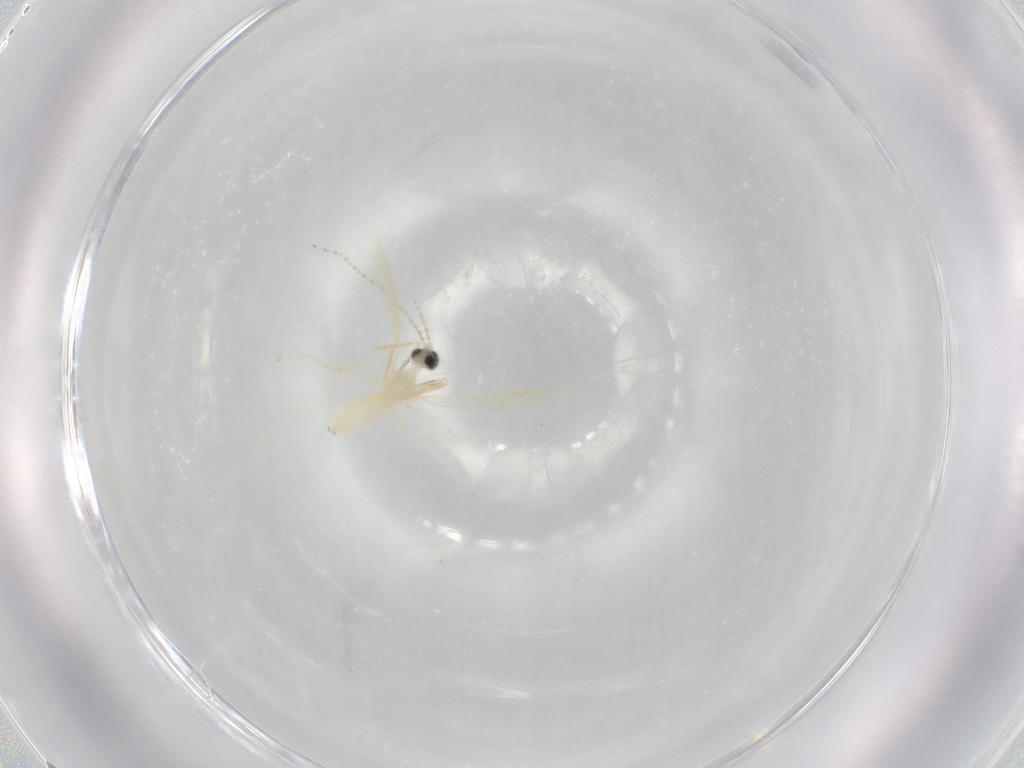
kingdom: Animalia
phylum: Arthropoda
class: Insecta
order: Diptera
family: Cecidomyiidae
